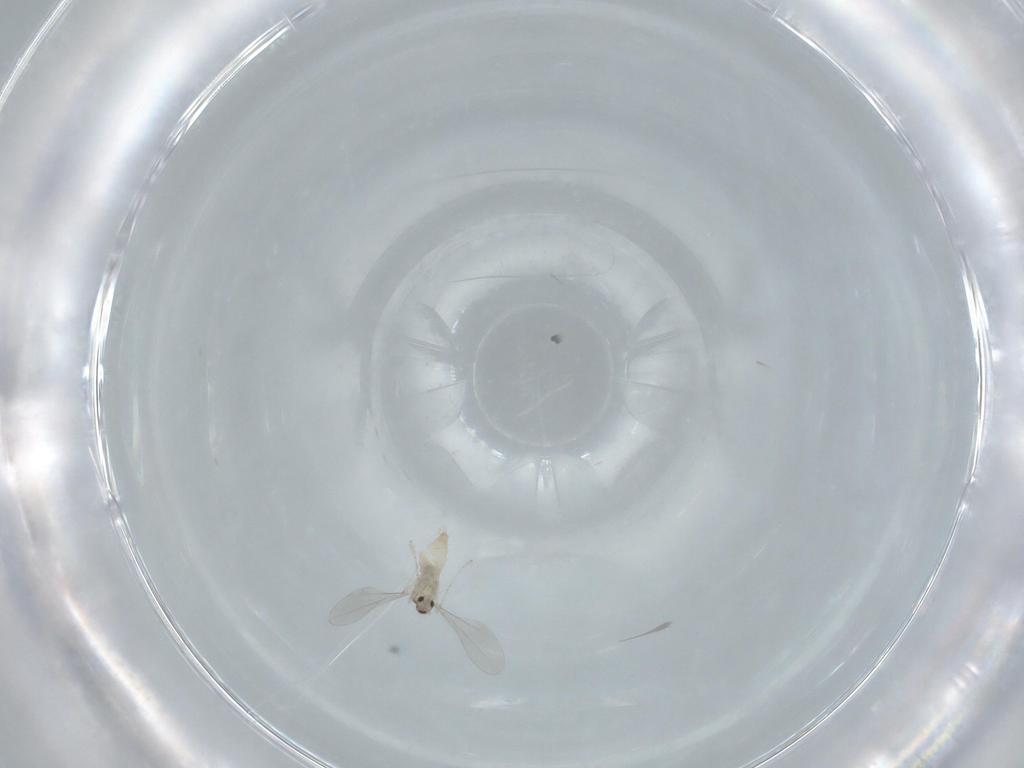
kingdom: Animalia
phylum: Arthropoda
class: Insecta
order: Diptera
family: Cecidomyiidae
